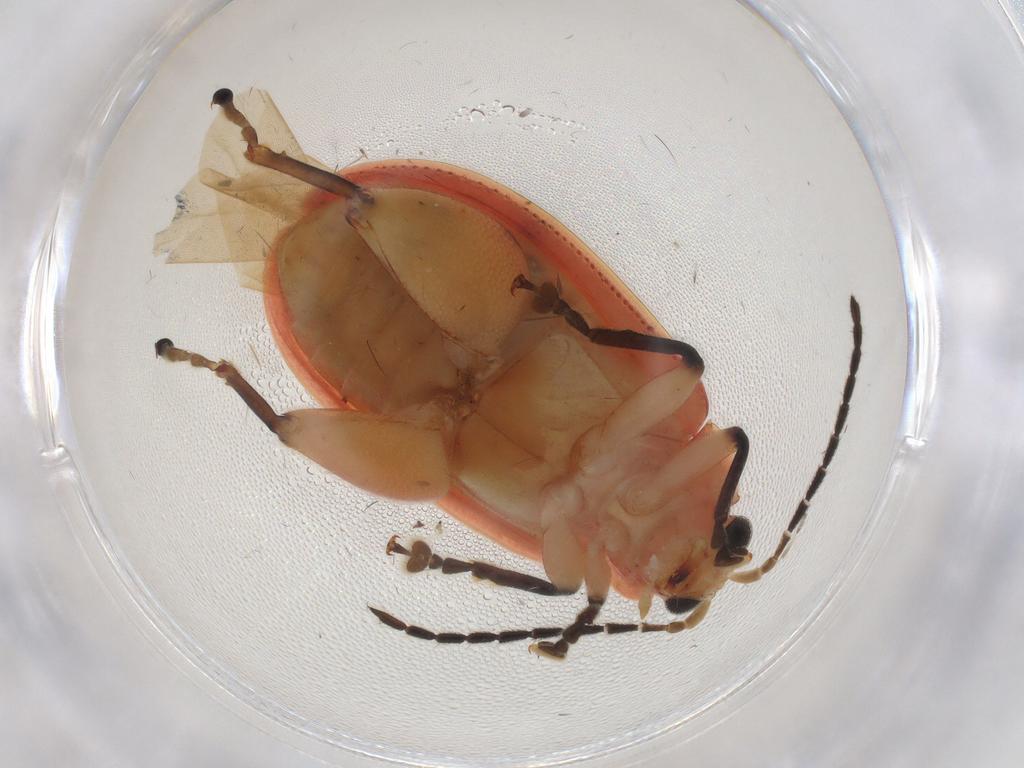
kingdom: Animalia
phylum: Arthropoda
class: Insecta
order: Coleoptera
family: Chrysomelidae
